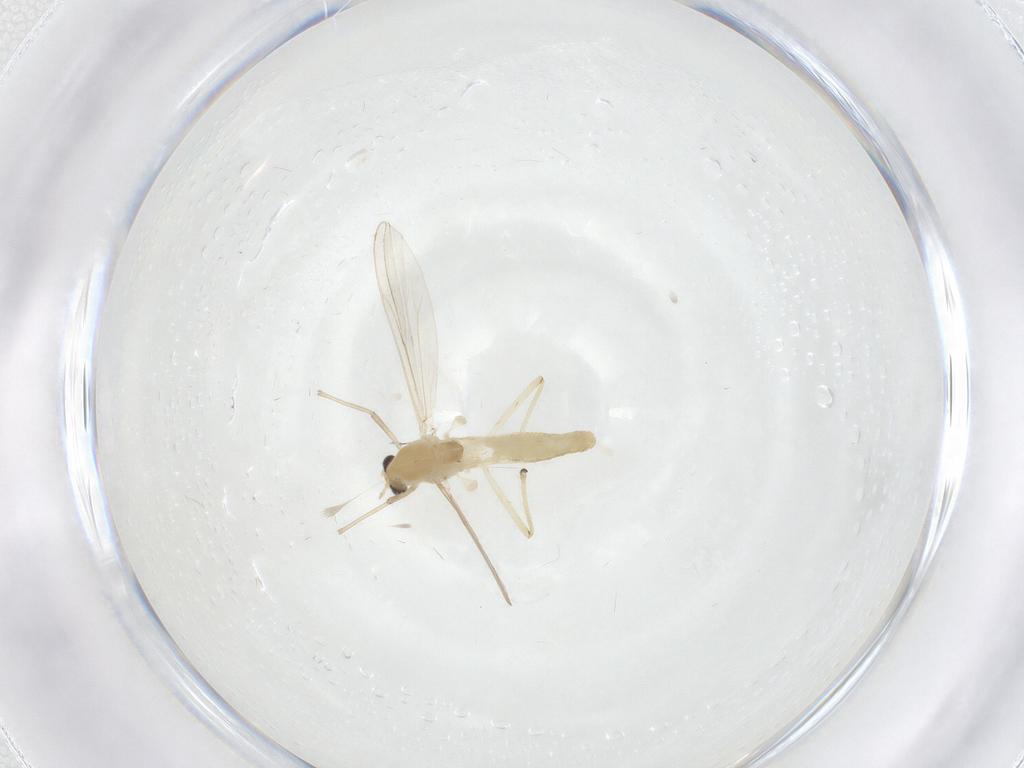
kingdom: Animalia
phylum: Arthropoda
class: Insecta
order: Diptera
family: Chironomidae
